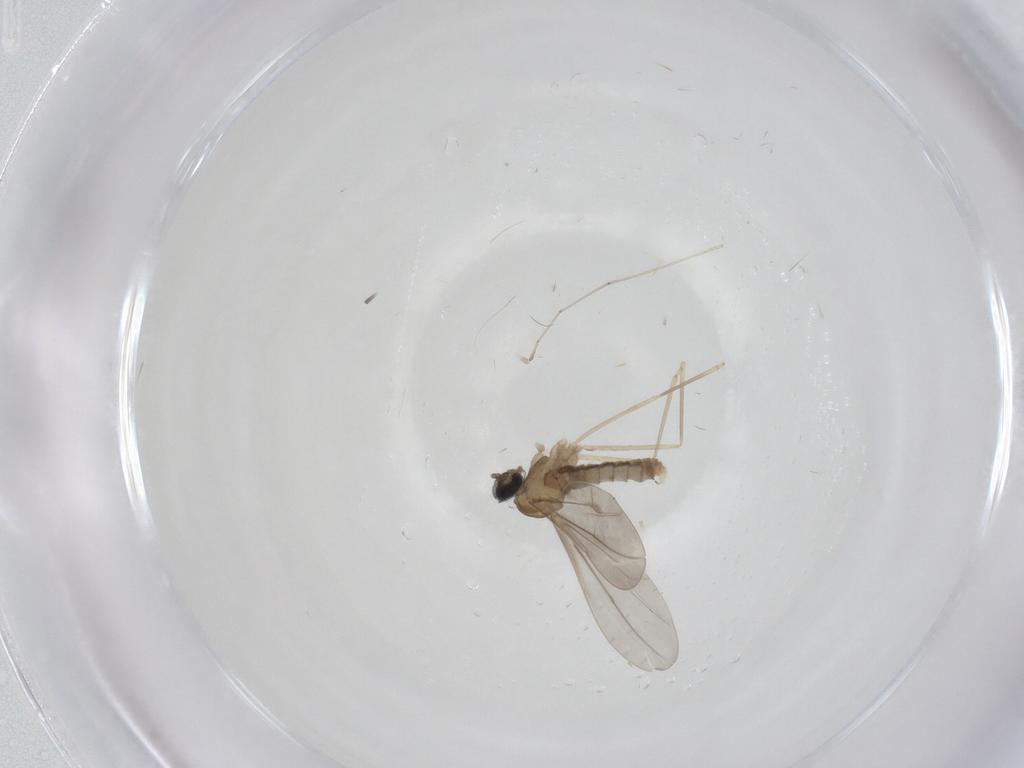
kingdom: Animalia
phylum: Arthropoda
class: Insecta
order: Diptera
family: Cecidomyiidae
